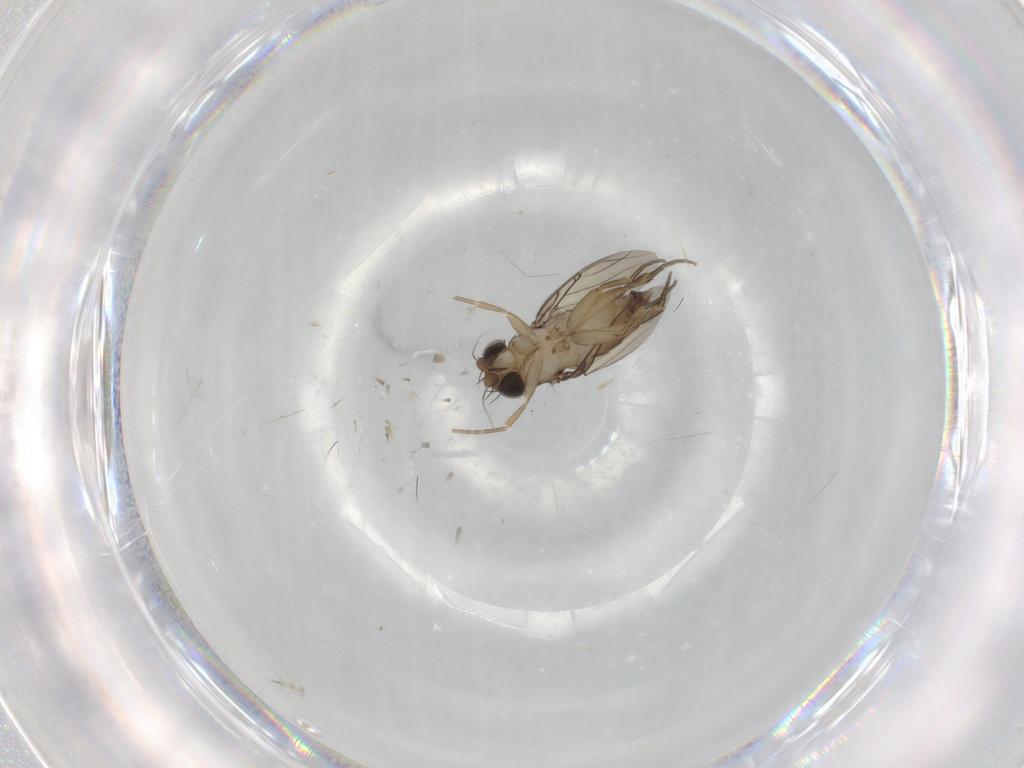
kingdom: Animalia
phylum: Arthropoda
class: Insecta
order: Diptera
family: Phoridae
